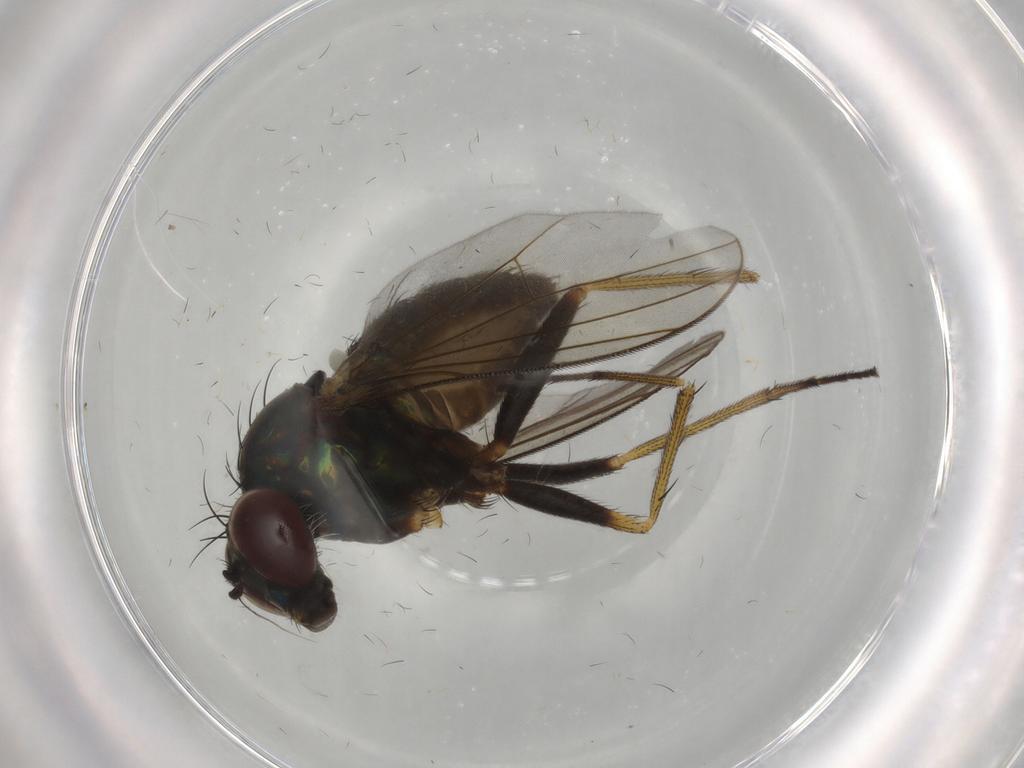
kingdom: Animalia
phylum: Arthropoda
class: Insecta
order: Diptera
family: Dolichopodidae
